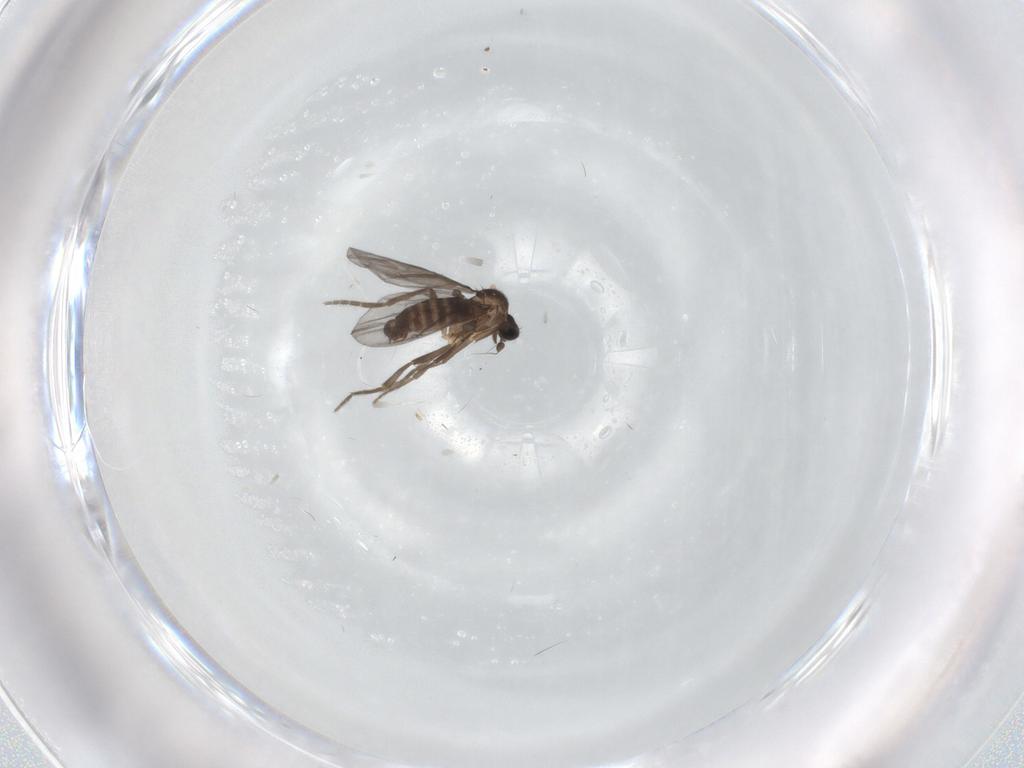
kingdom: Animalia
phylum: Arthropoda
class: Insecta
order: Diptera
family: Phoridae
